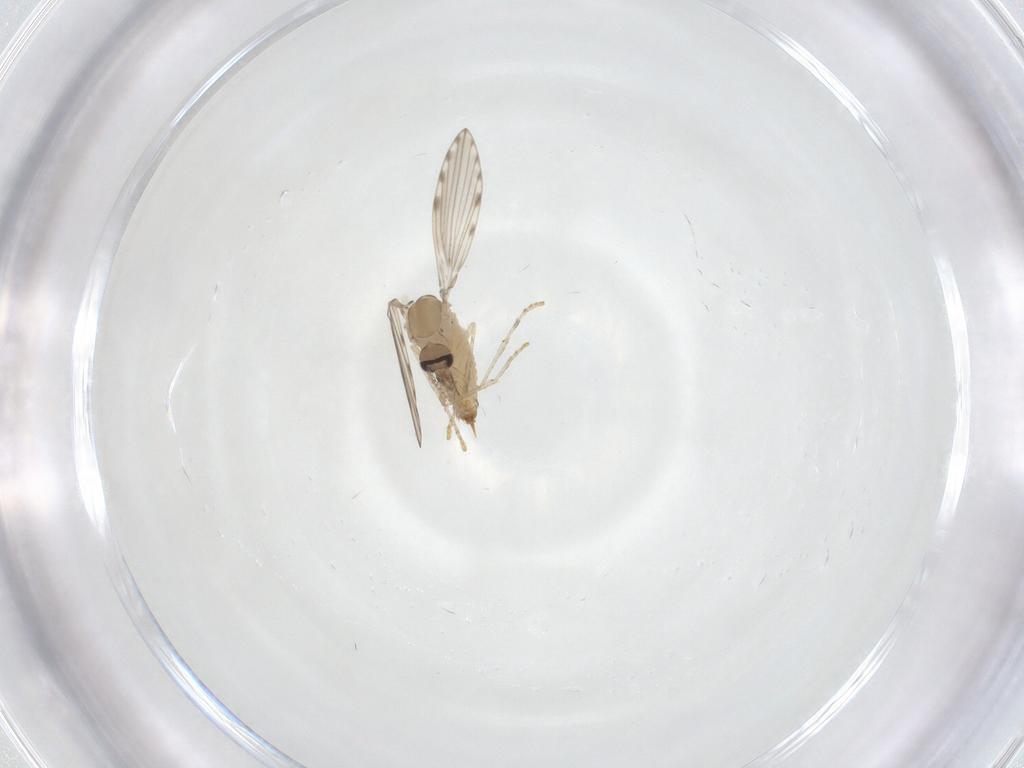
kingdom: Animalia
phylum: Arthropoda
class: Insecta
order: Diptera
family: Psychodidae
